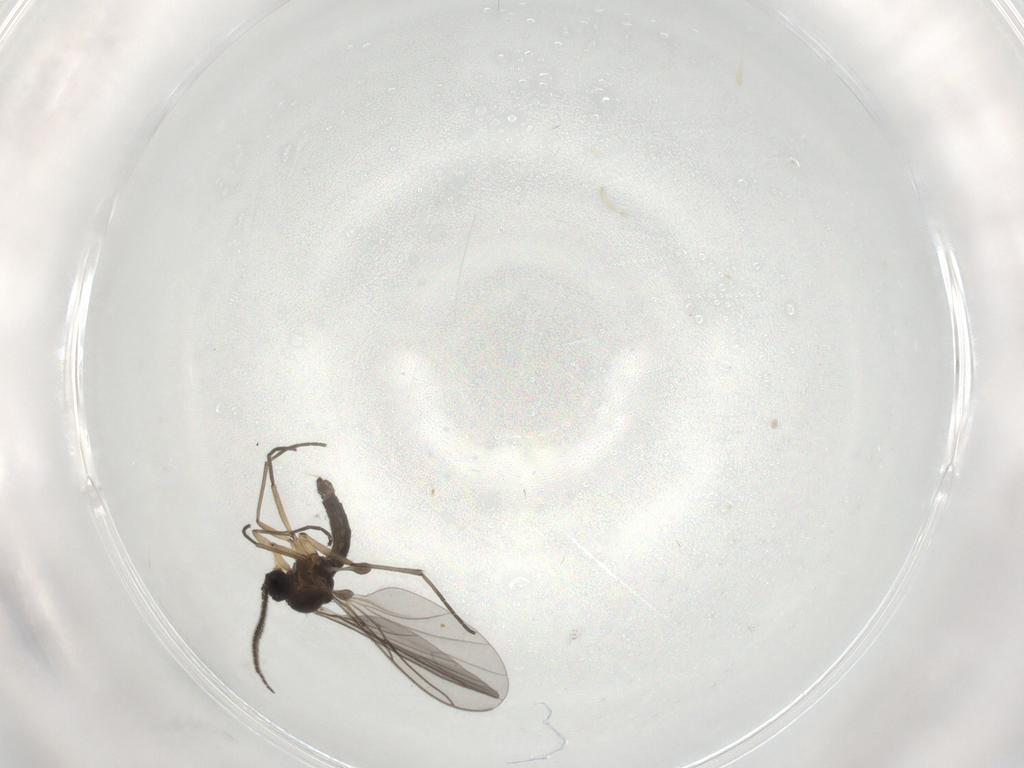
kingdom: Animalia
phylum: Arthropoda
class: Insecta
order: Diptera
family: Sciaridae
